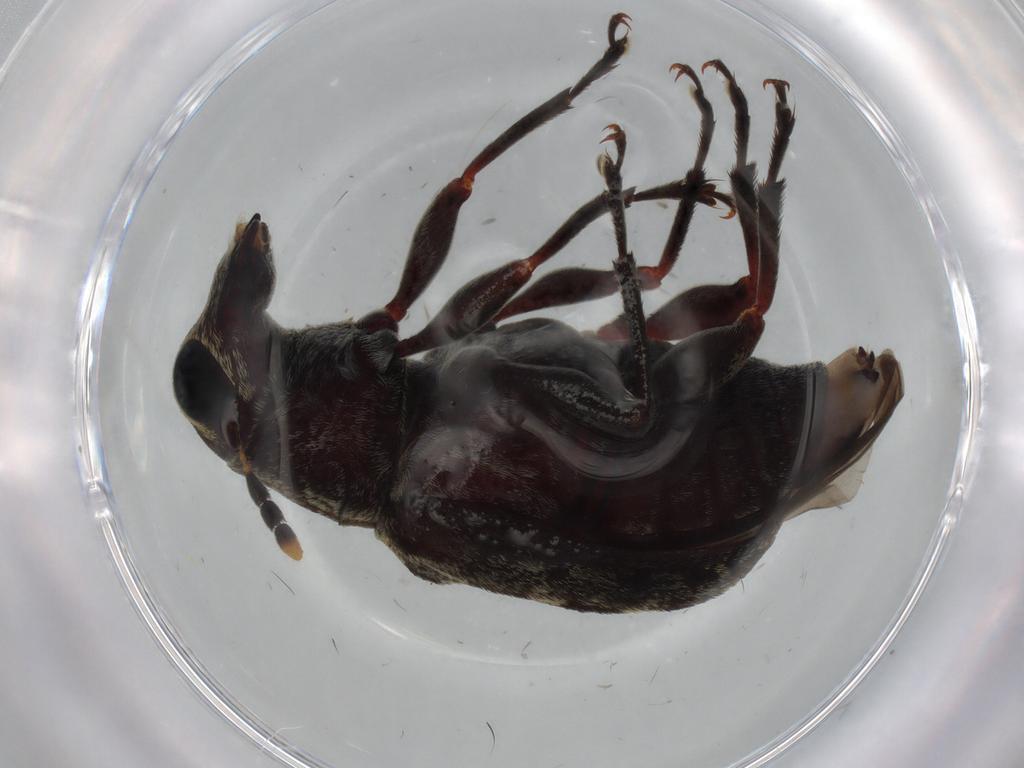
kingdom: Animalia
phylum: Arthropoda
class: Insecta
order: Coleoptera
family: Anthribidae
